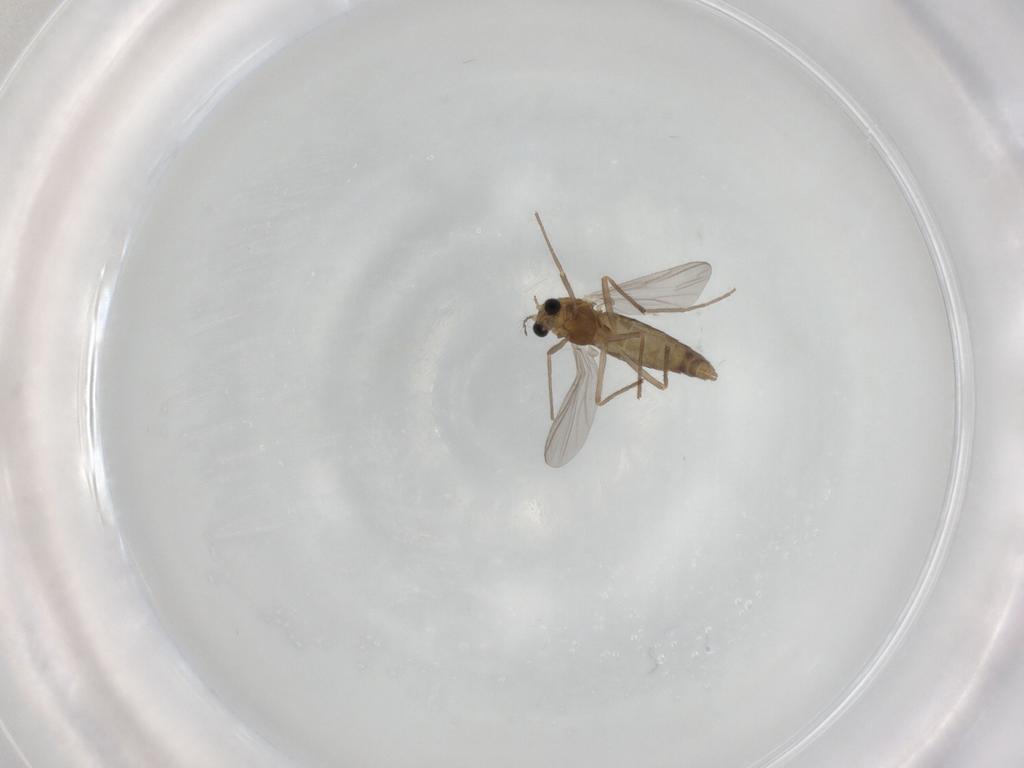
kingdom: Animalia
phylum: Arthropoda
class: Insecta
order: Diptera
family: Chironomidae
